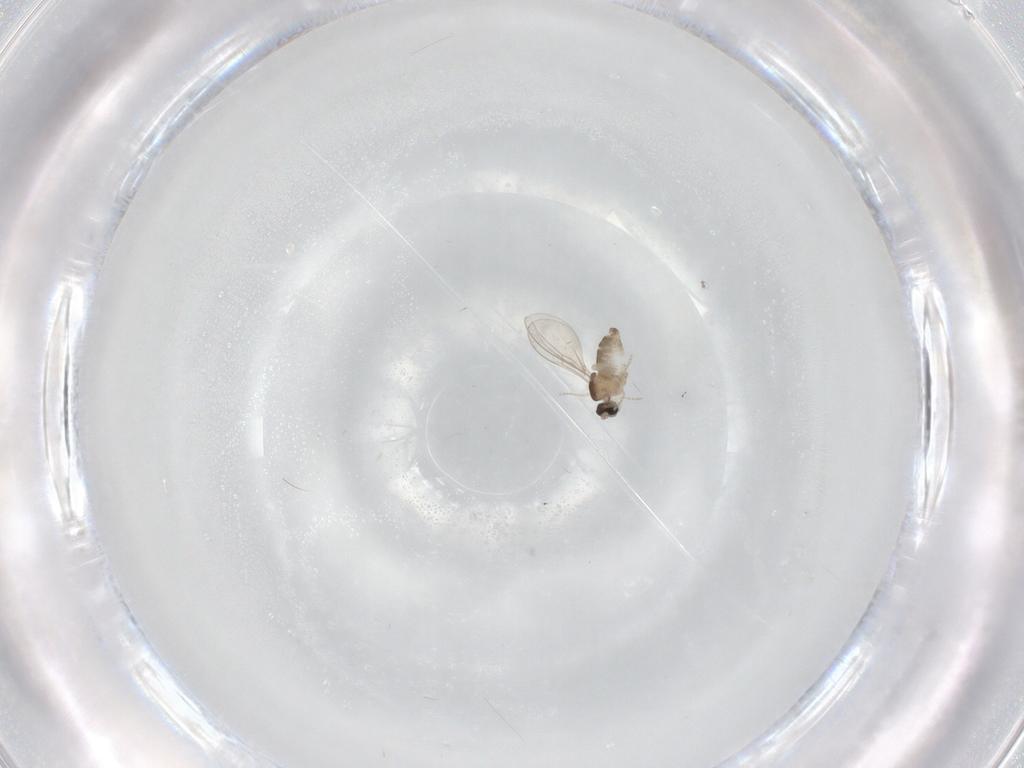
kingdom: Animalia
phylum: Arthropoda
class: Insecta
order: Diptera
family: Cecidomyiidae
